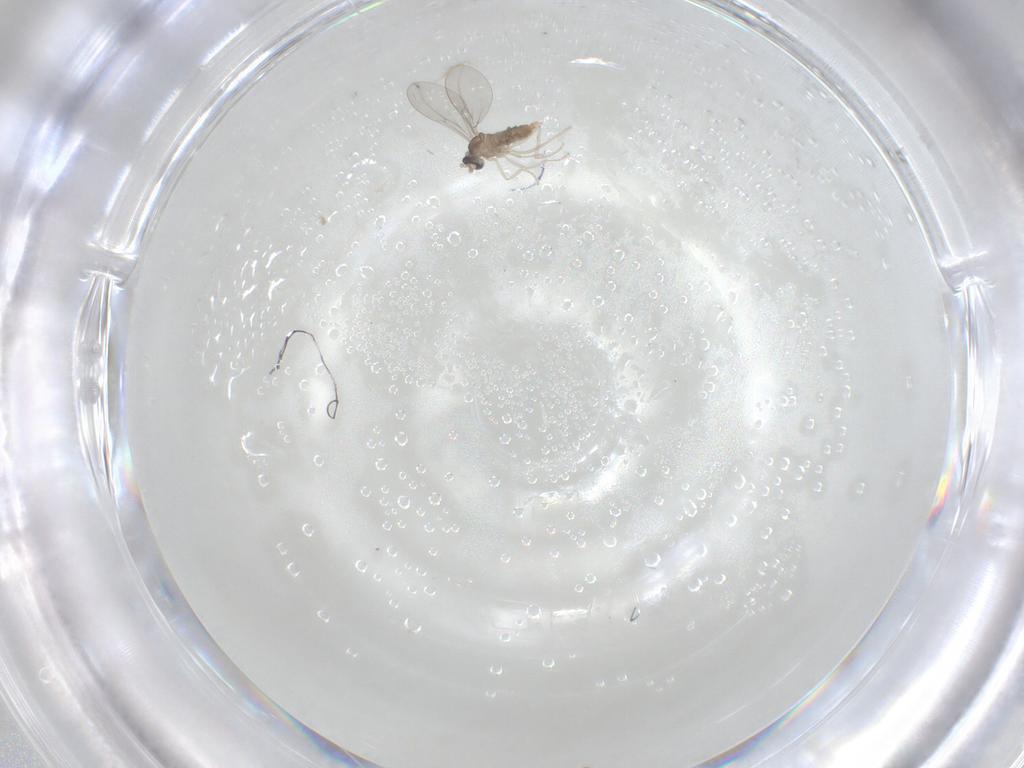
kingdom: Animalia
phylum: Arthropoda
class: Insecta
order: Diptera
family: Cecidomyiidae
